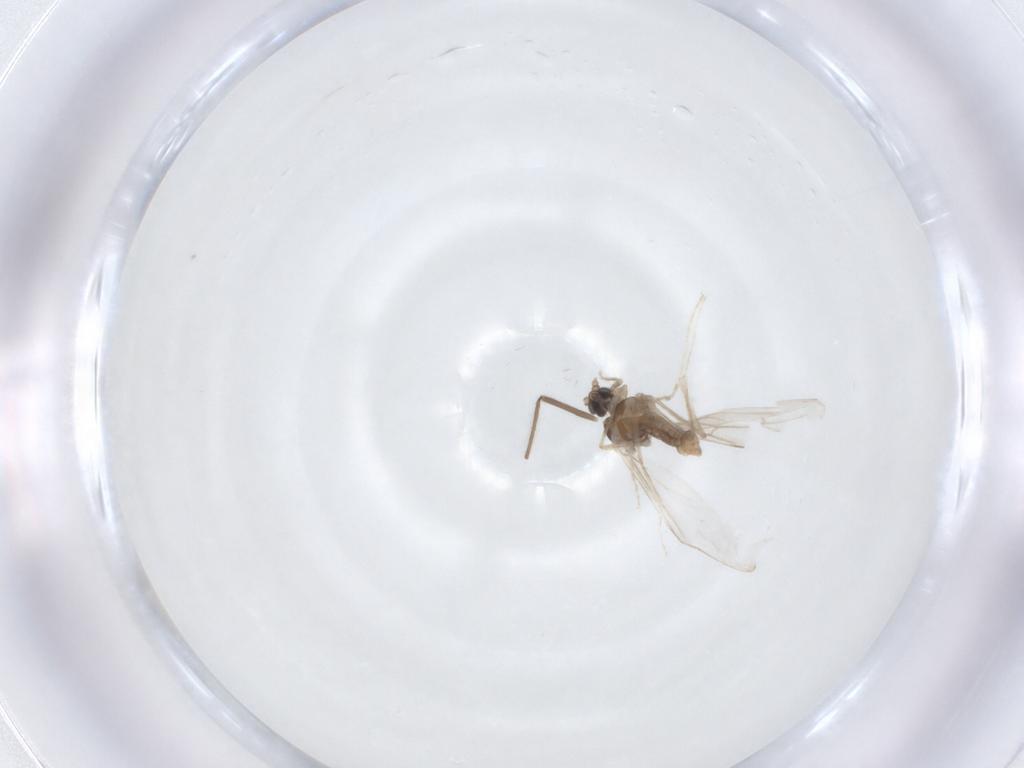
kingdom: Animalia
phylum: Arthropoda
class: Insecta
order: Diptera
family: Cecidomyiidae
